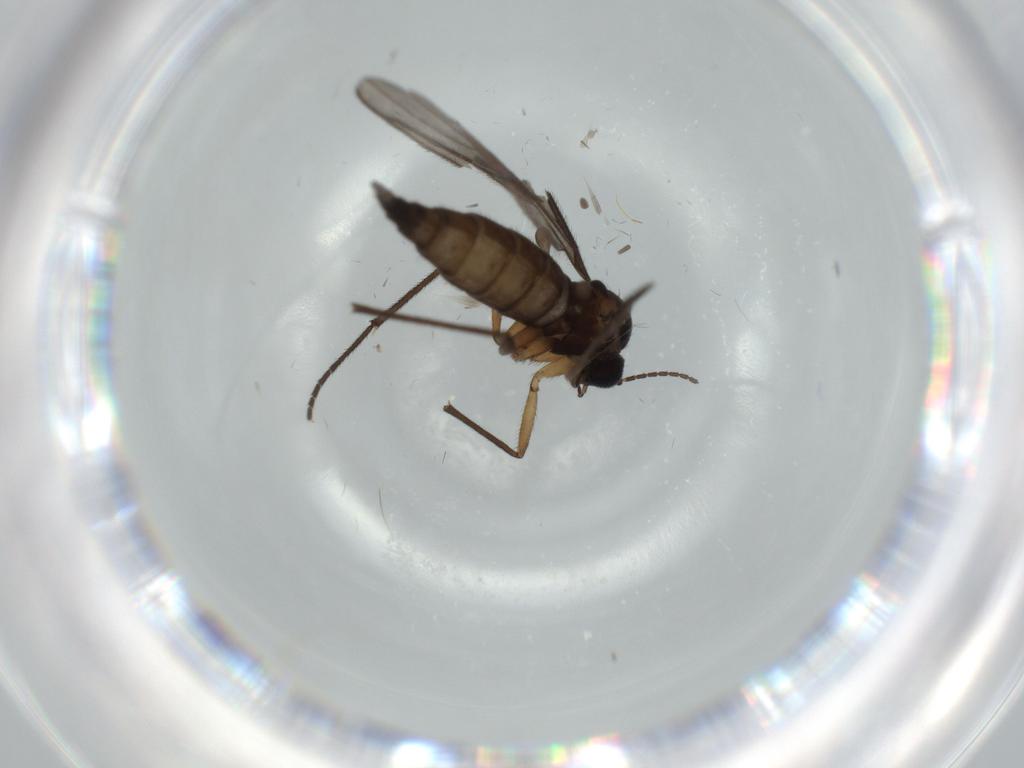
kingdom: Animalia
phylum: Arthropoda
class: Insecta
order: Diptera
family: Sciaridae
